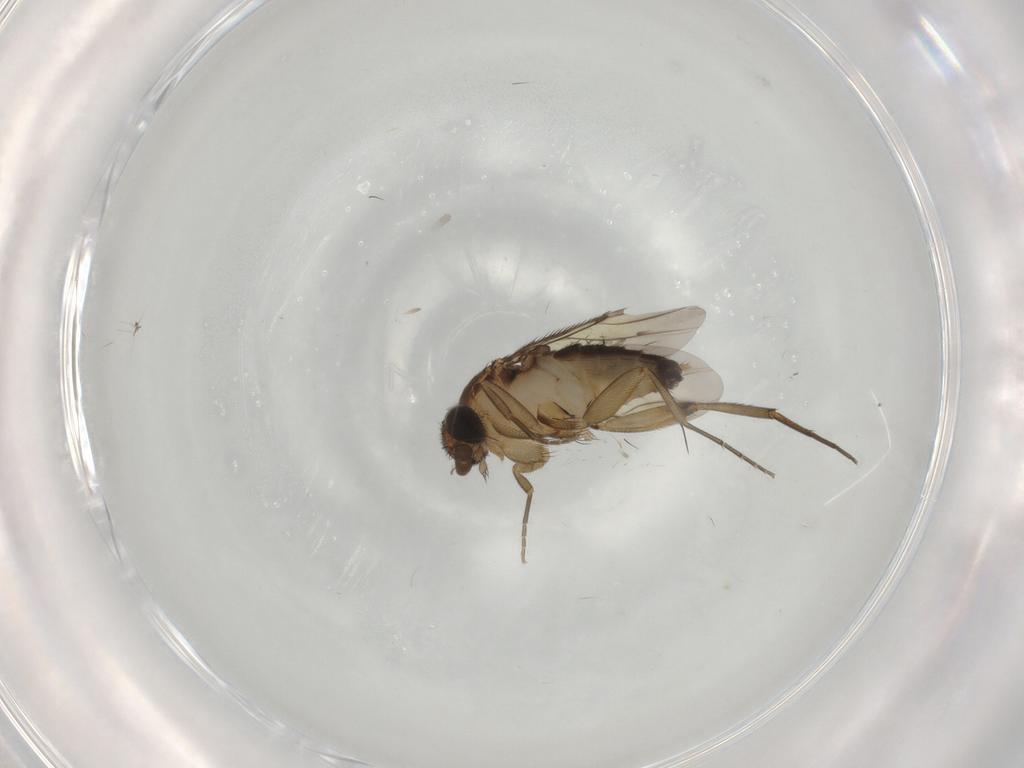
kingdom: Animalia
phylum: Arthropoda
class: Insecta
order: Diptera
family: Phoridae
